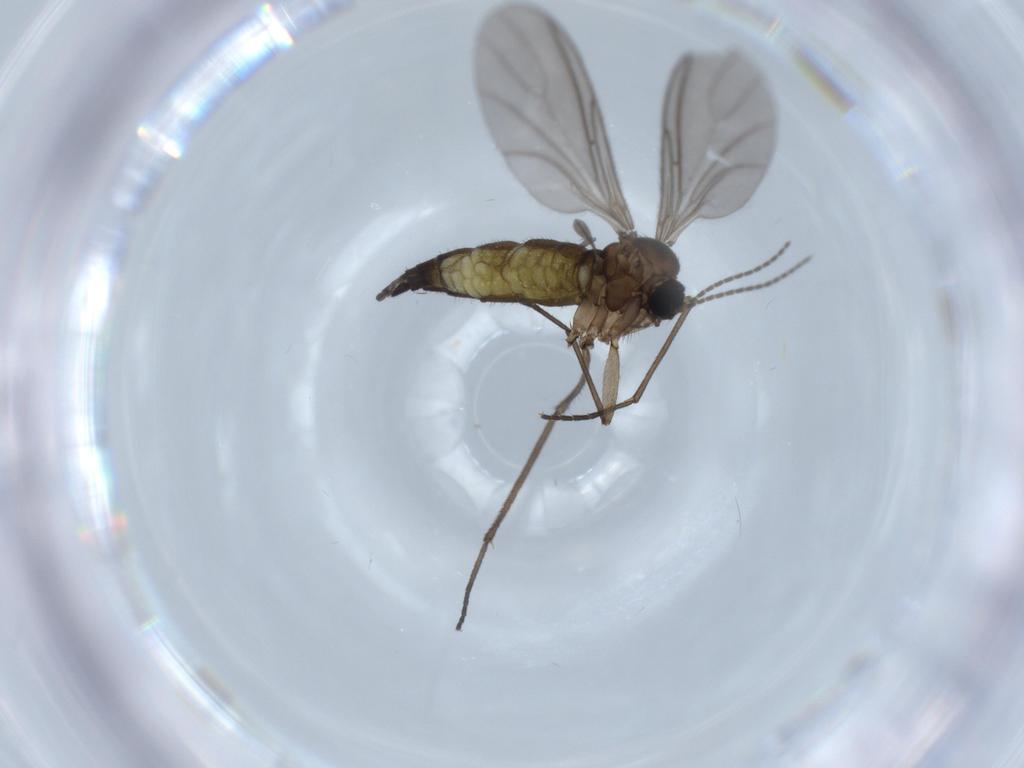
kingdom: Animalia
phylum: Arthropoda
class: Insecta
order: Diptera
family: Sciaridae
